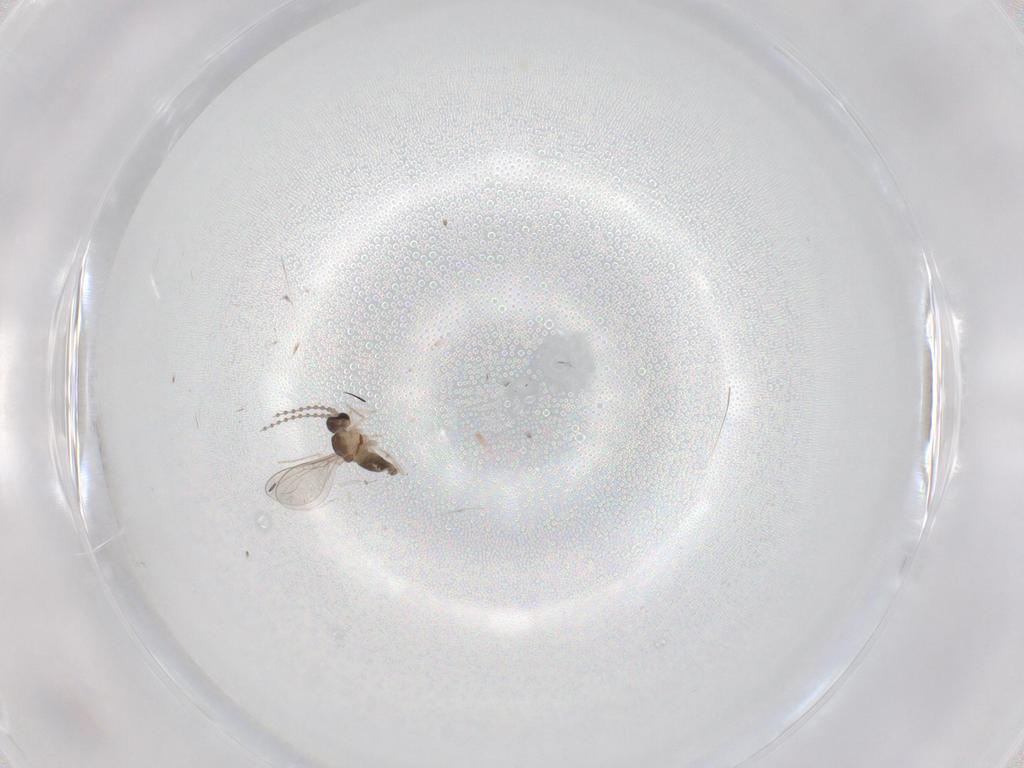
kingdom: Animalia
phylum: Arthropoda
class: Insecta
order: Diptera
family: Cecidomyiidae
